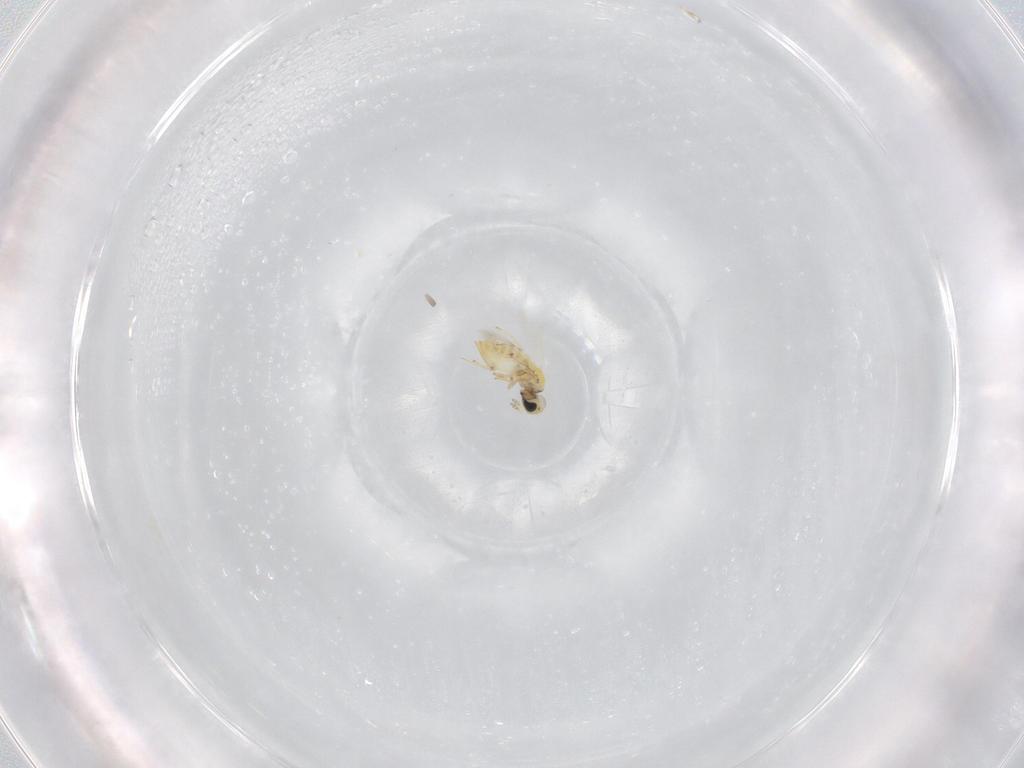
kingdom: Animalia
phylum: Arthropoda
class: Insecta
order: Hymenoptera
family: Trichogrammatidae
